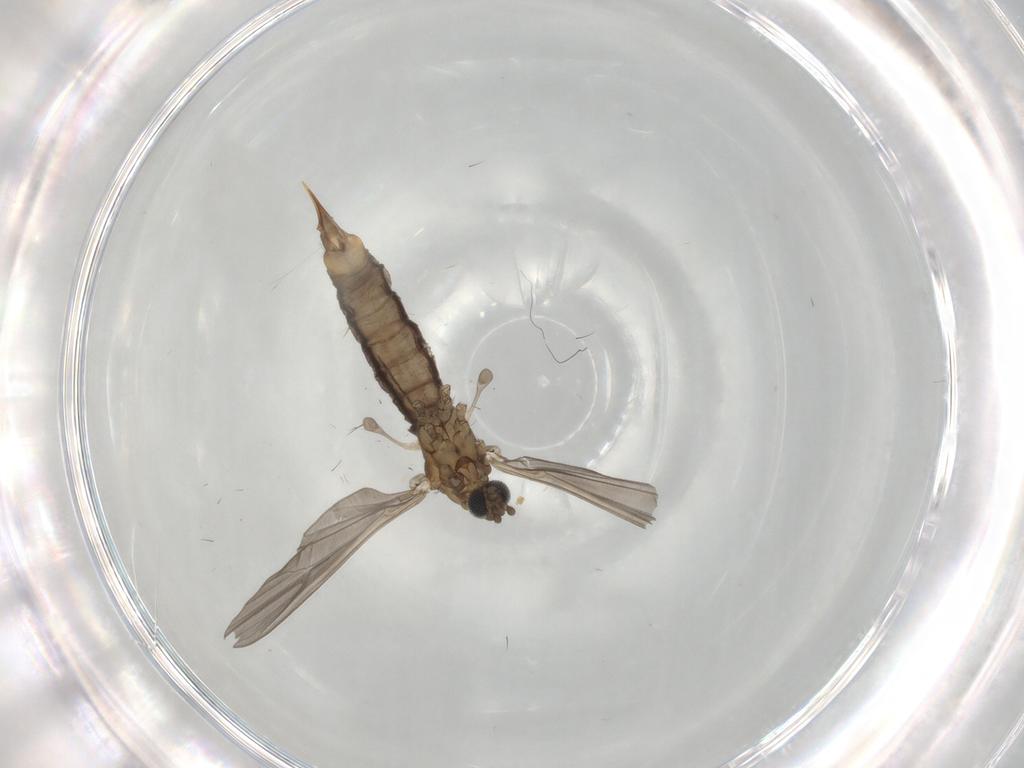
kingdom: Animalia
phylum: Arthropoda
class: Insecta
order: Diptera
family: Limoniidae
